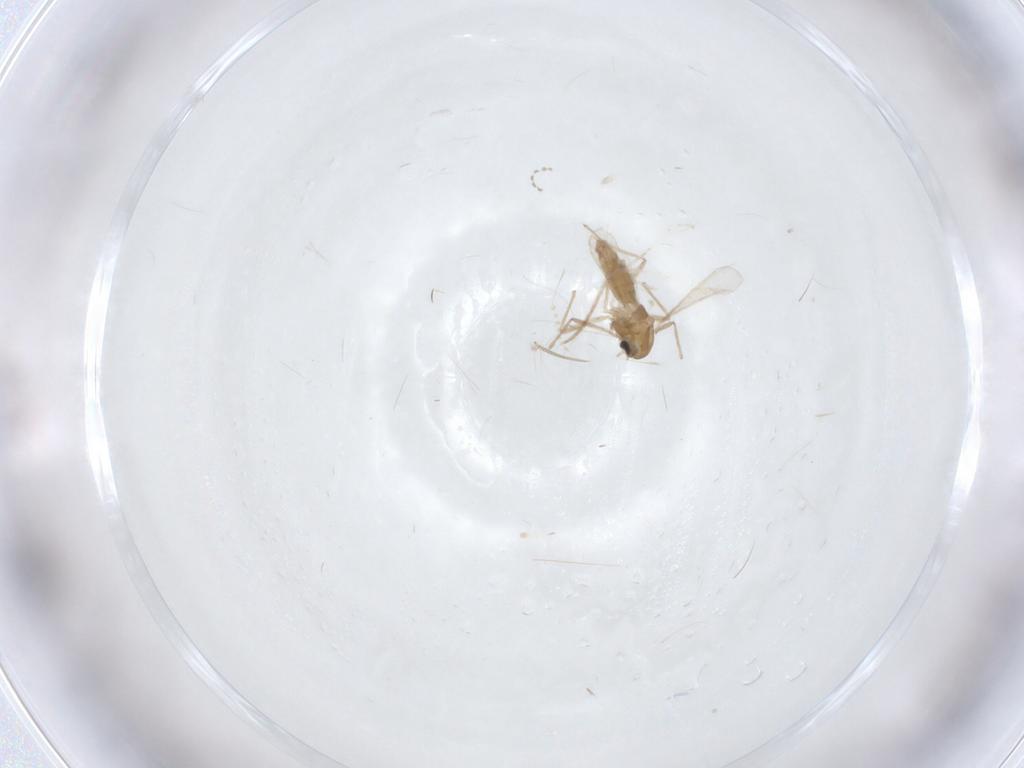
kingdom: Animalia
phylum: Arthropoda
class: Insecta
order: Diptera
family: Chironomidae
